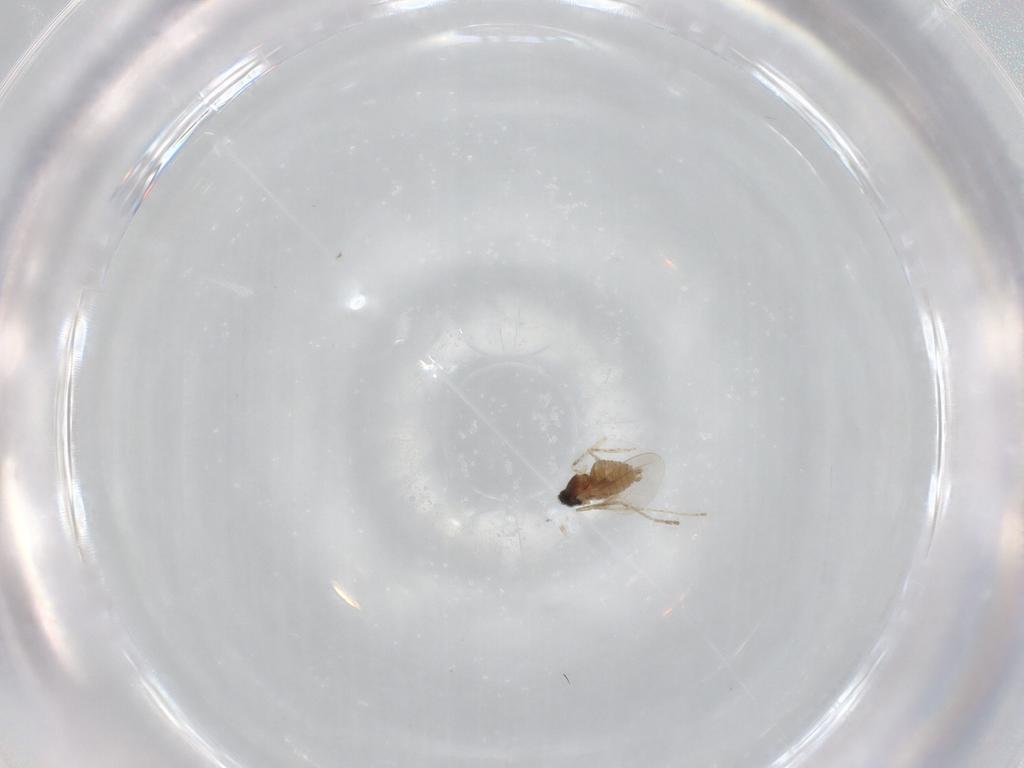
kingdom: Animalia
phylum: Arthropoda
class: Insecta
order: Diptera
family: Cecidomyiidae
